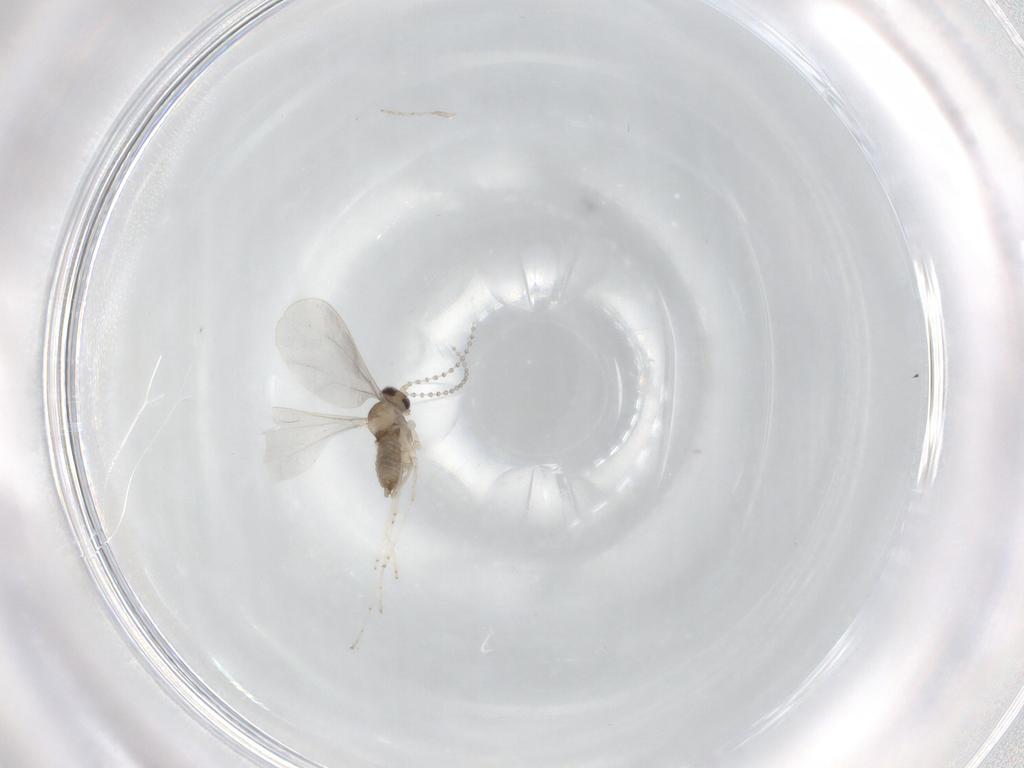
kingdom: Animalia
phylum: Arthropoda
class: Insecta
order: Diptera
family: Cecidomyiidae
